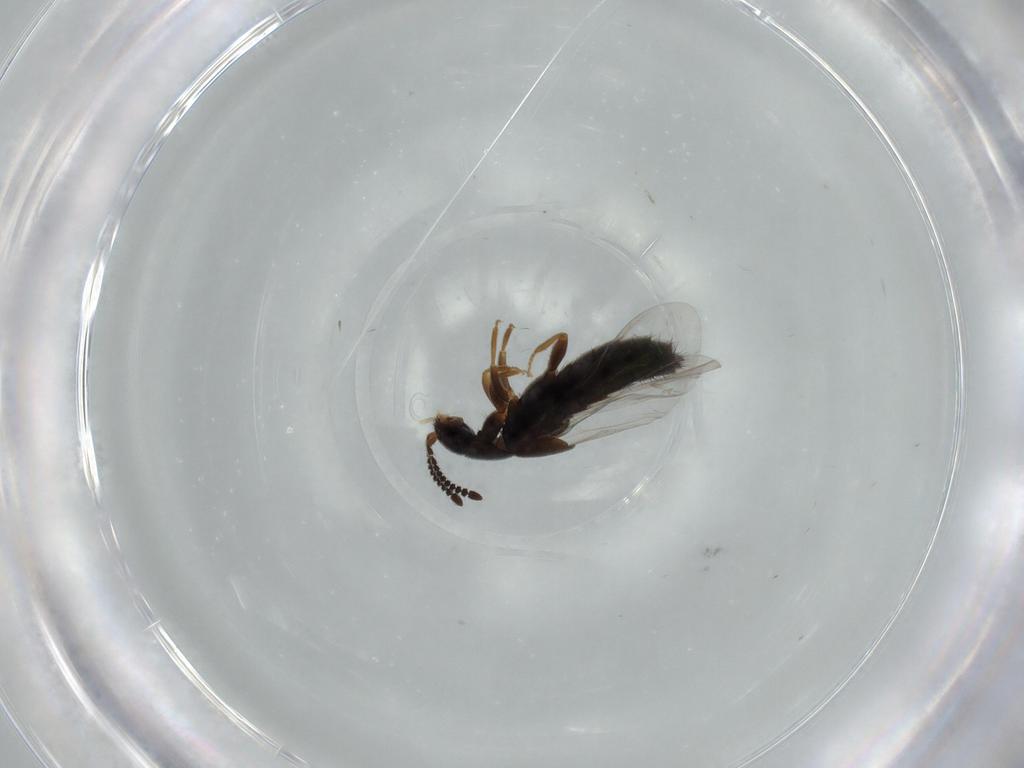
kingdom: Animalia
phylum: Arthropoda
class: Insecta
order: Coleoptera
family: Staphylinidae
